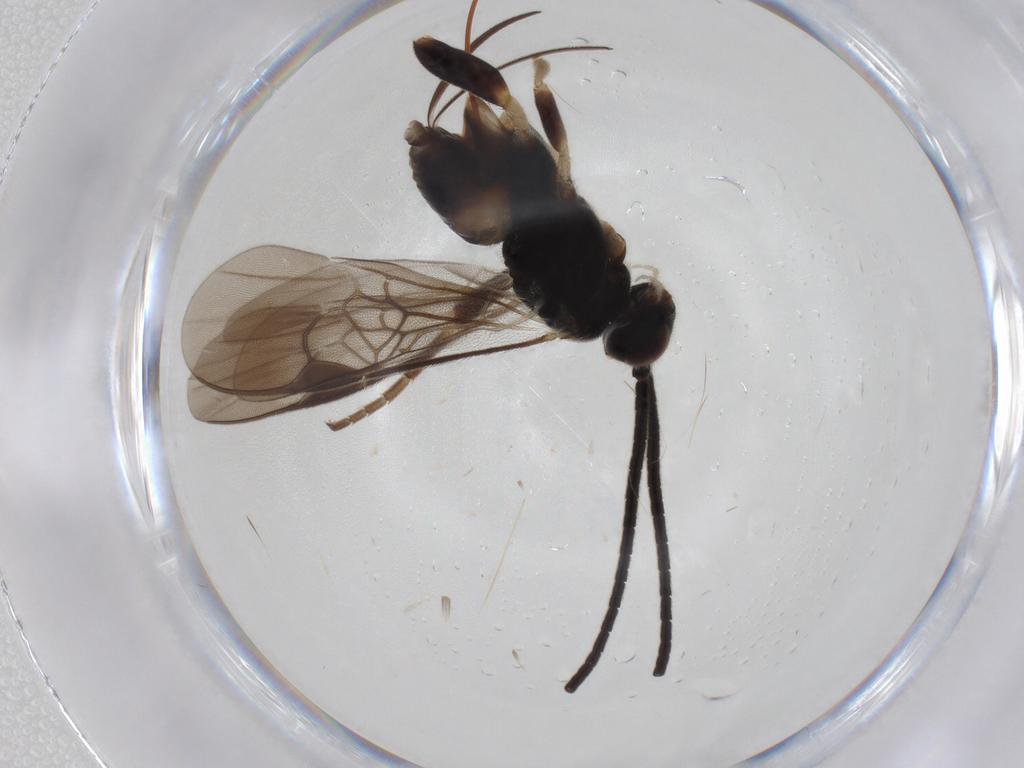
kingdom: Animalia
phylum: Arthropoda
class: Insecta
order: Hymenoptera
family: Braconidae
